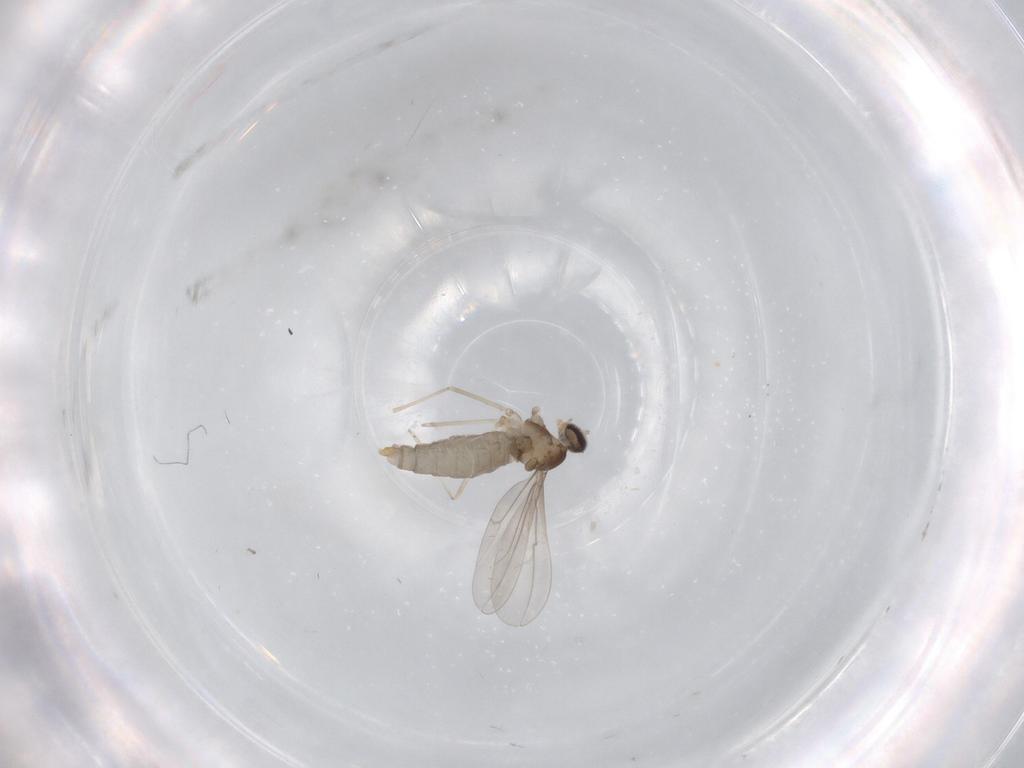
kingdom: Animalia
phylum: Arthropoda
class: Insecta
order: Diptera
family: Cecidomyiidae
